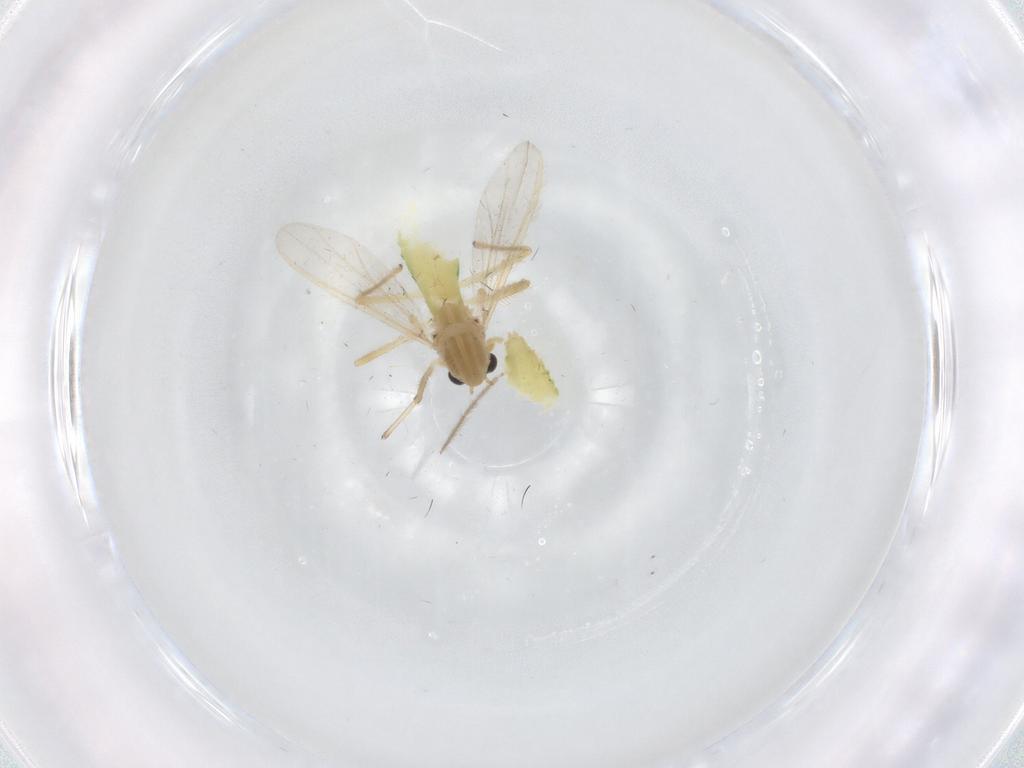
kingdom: Animalia
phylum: Arthropoda
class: Insecta
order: Diptera
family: Chironomidae
